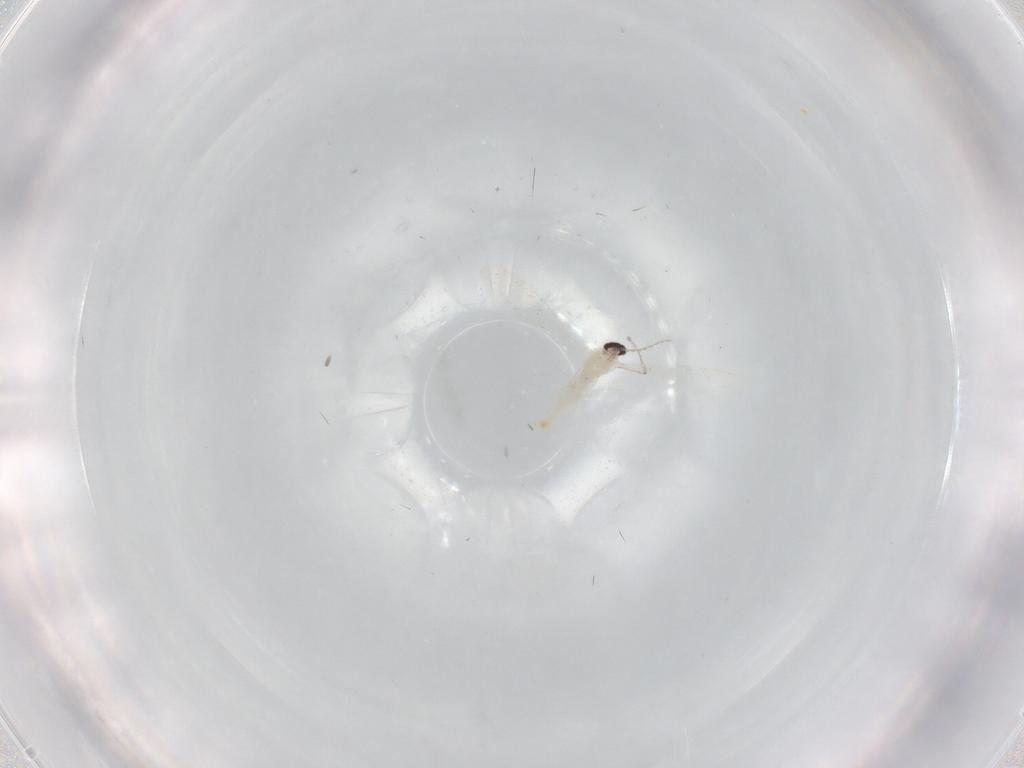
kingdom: Animalia
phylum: Arthropoda
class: Insecta
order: Diptera
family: Cecidomyiidae
